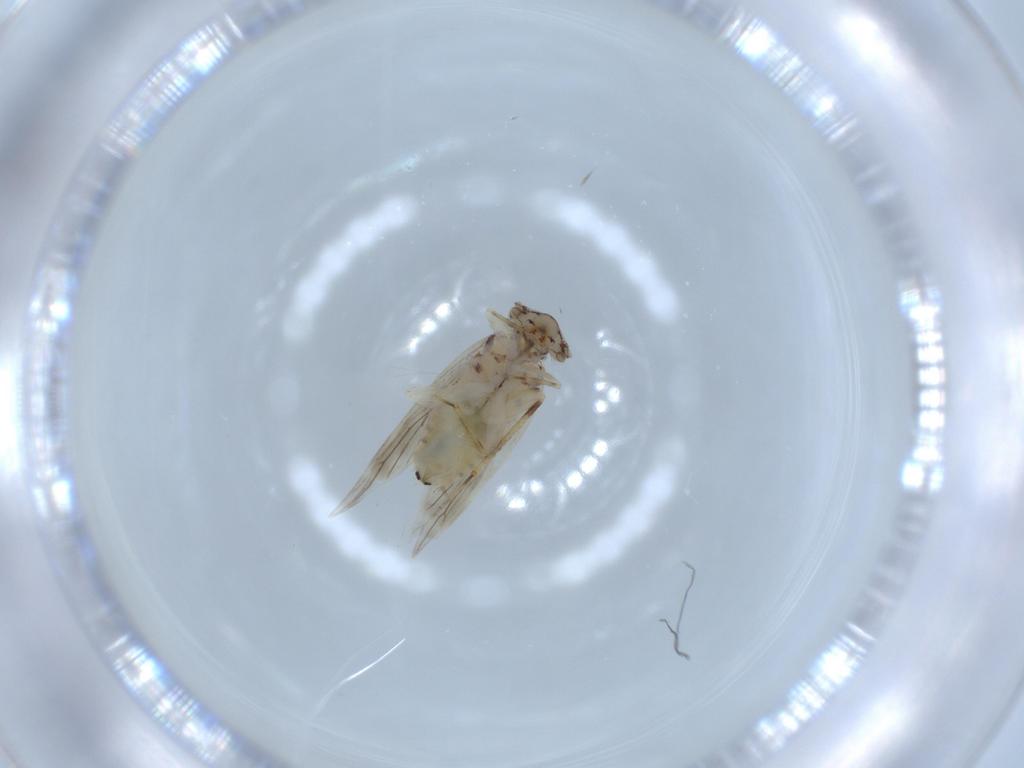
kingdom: Animalia
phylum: Arthropoda
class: Insecta
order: Psocodea
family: Lepidopsocidae
